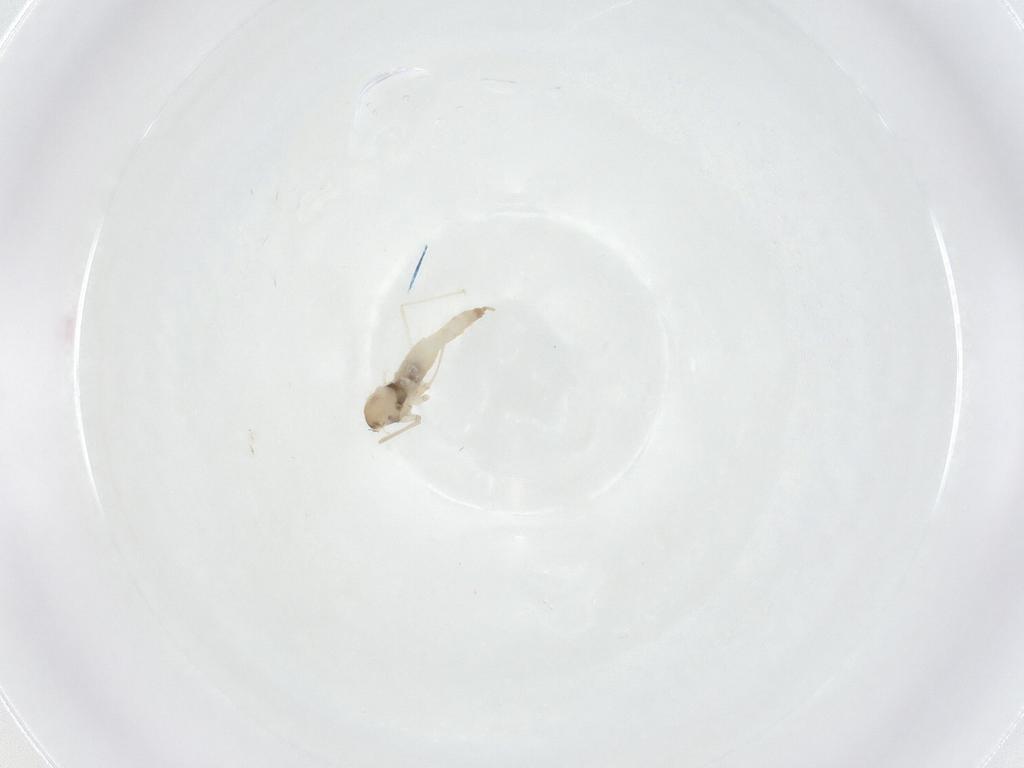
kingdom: Animalia
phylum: Arthropoda
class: Insecta
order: Diptera
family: Cecidomyiidae
